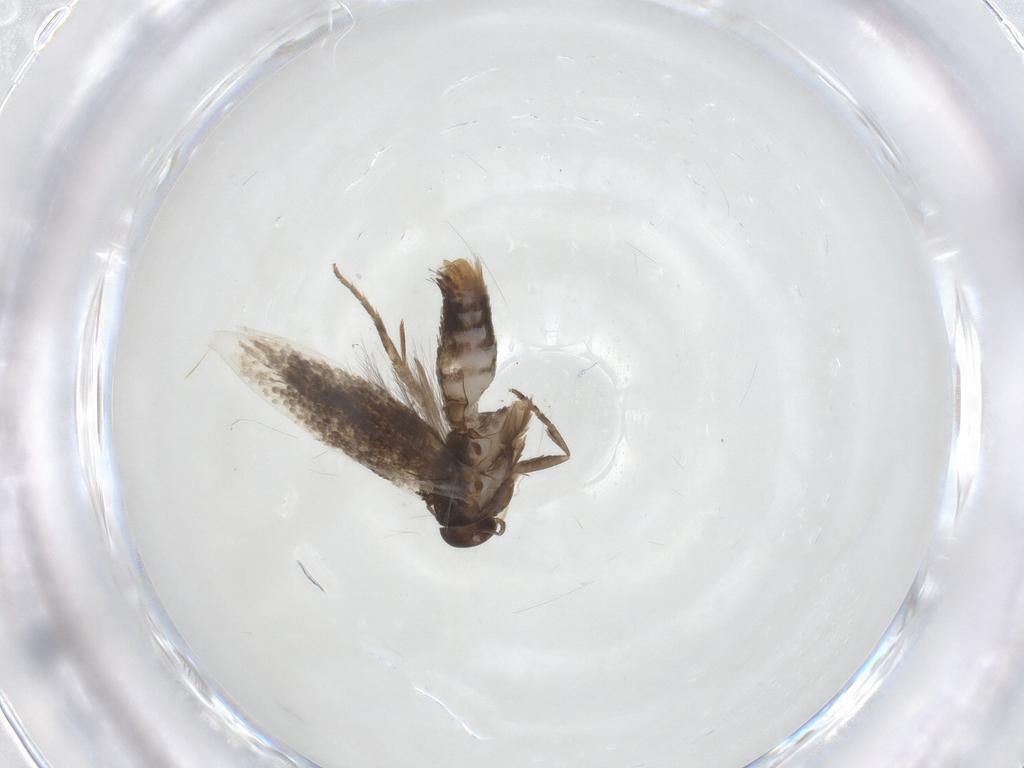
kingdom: Animalia
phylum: Arthropoda
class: Insecta
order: Lepidoptera
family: Elachistidae
